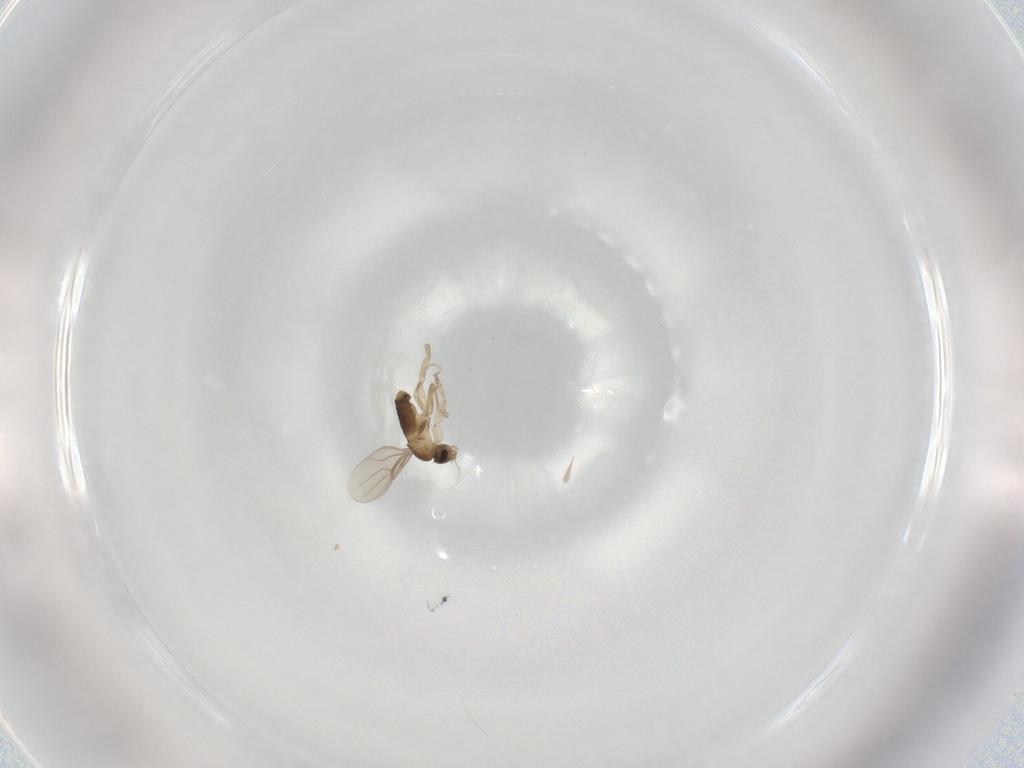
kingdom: Animalia
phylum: Arthropoda
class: Insecta
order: Diptera
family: Phoridae
